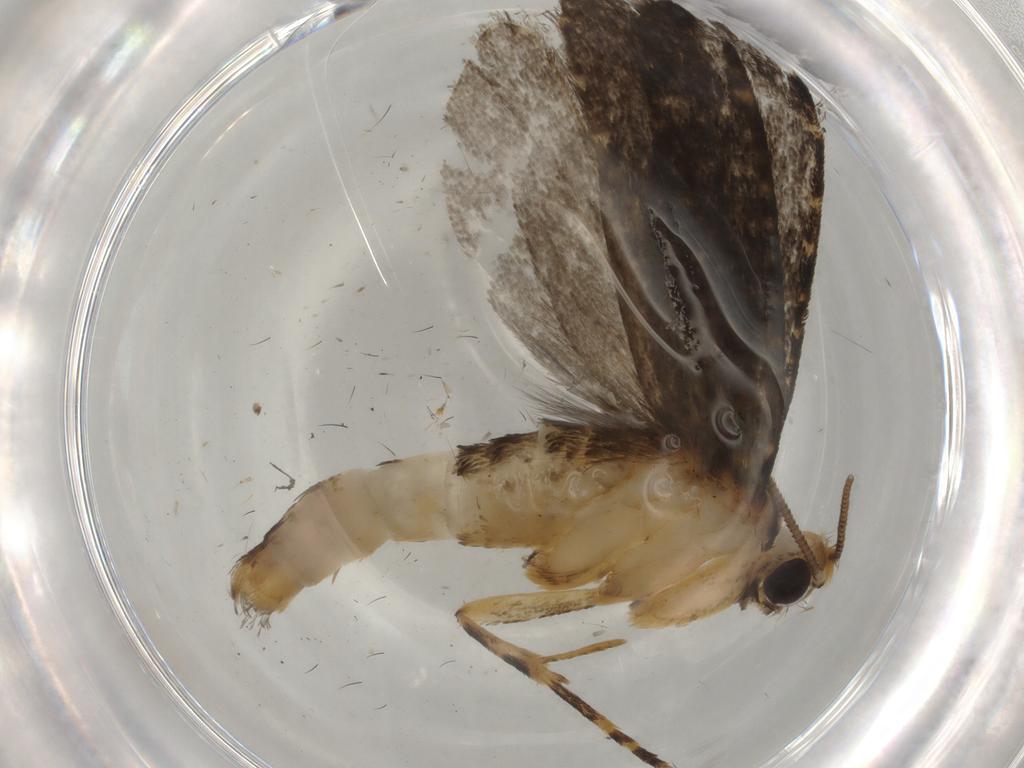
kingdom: Animalia
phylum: Arthropoda
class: Insecta
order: Lepidoptera
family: Tineidae
